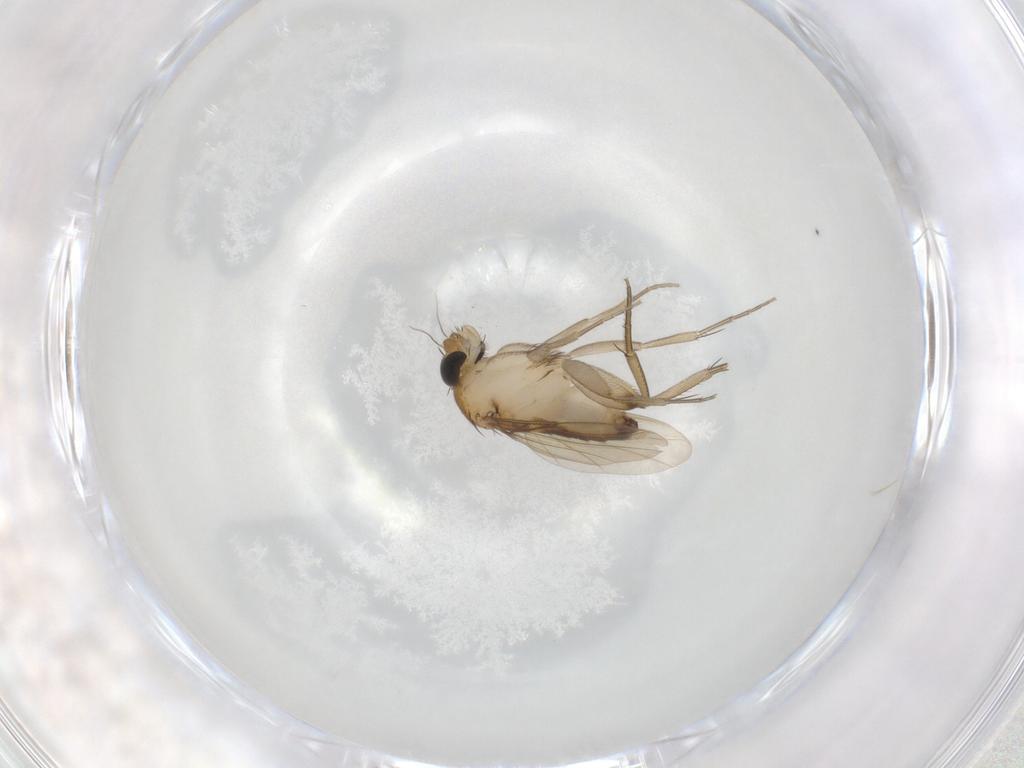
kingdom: Animalia
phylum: Arthropoda
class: Insecta
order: Diptera
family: Phoridae
